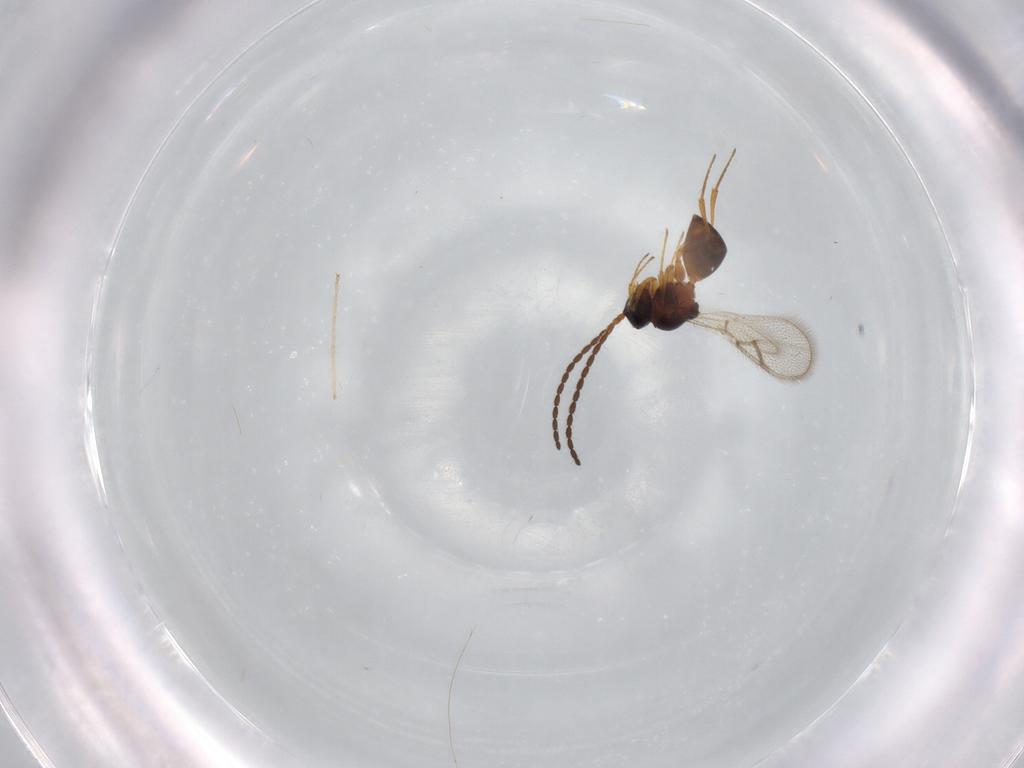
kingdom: Animalia
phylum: Arthropoda
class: Insecta
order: Hymenoptera
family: Figitidae
